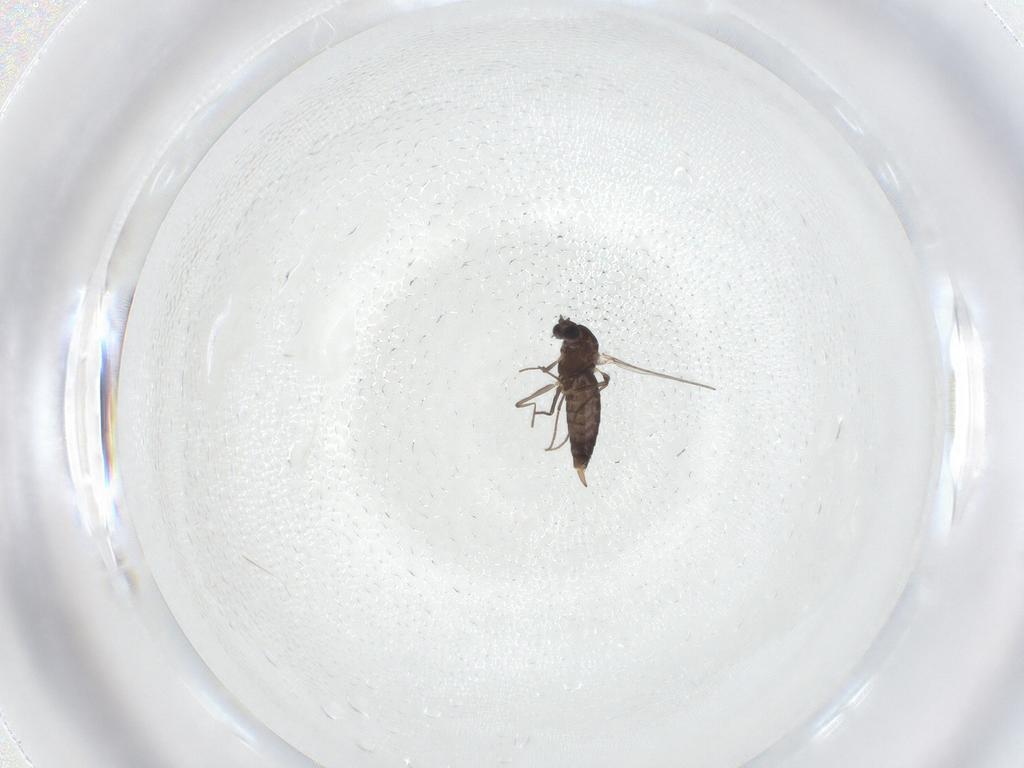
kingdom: Animalia
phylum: Arthropoda
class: Insecta
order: Diptera
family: Chironomidae
